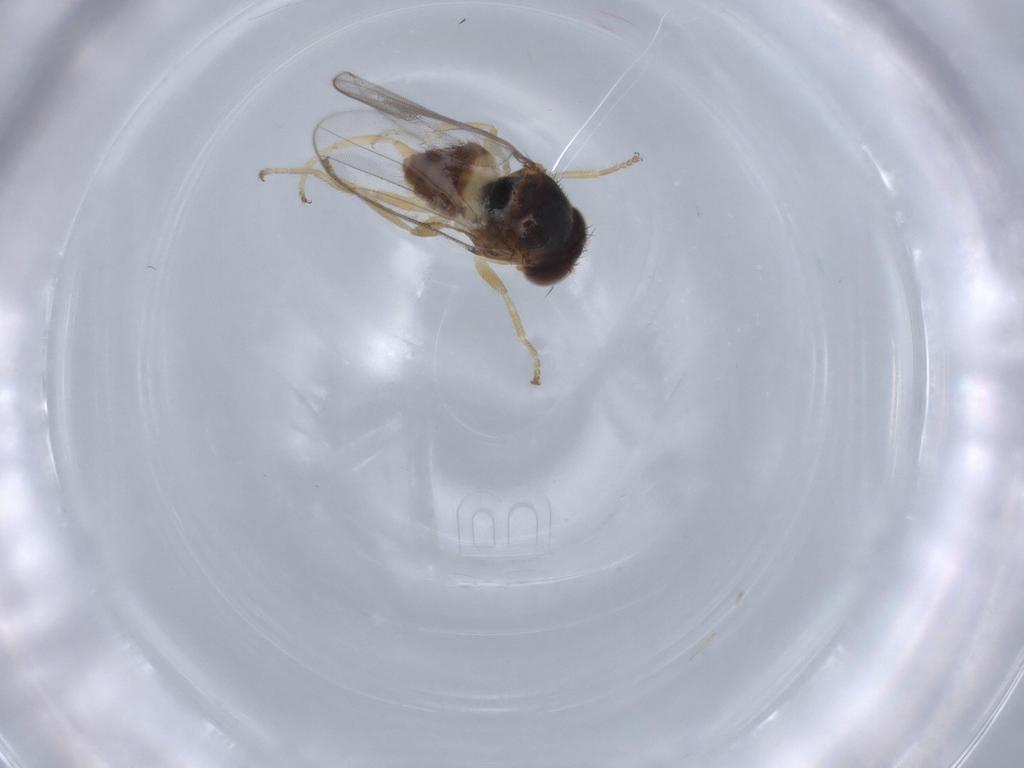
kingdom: Animalia
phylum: Arthropoda
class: Insecta
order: Diptera
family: Chloropidae
